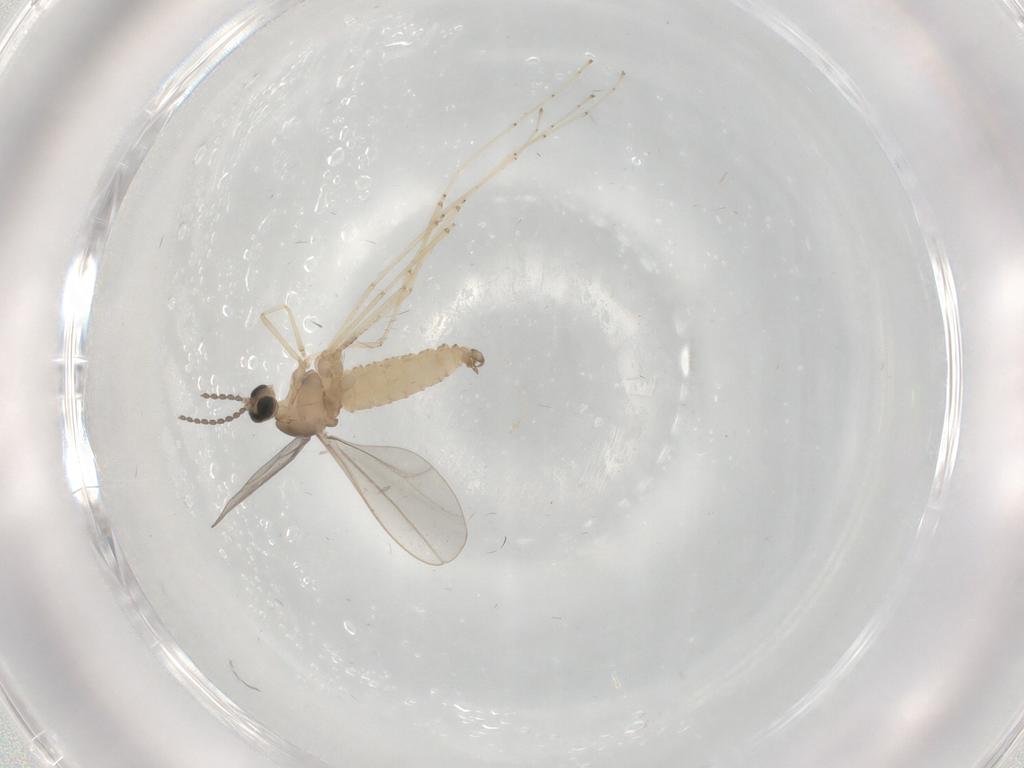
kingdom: Animalia
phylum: Arthropoda
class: Insecta
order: Diptera
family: Cecidomyiidae
